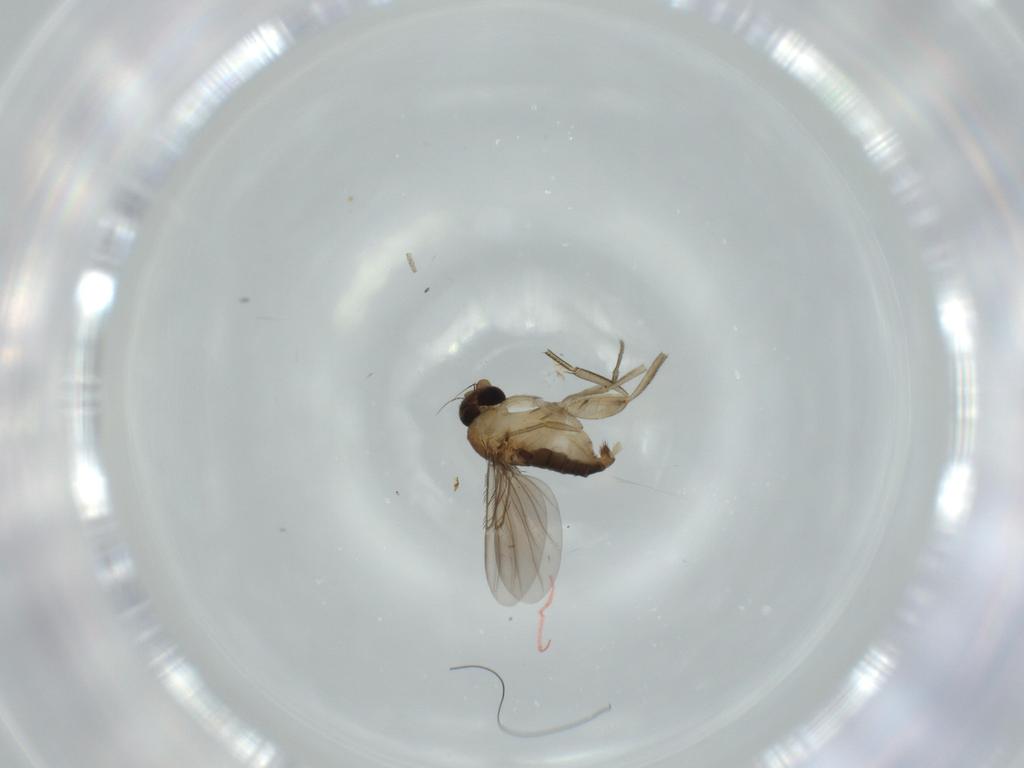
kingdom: Animalia
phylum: Arthropoda
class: Insecta
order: Diptera
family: Phoridae
